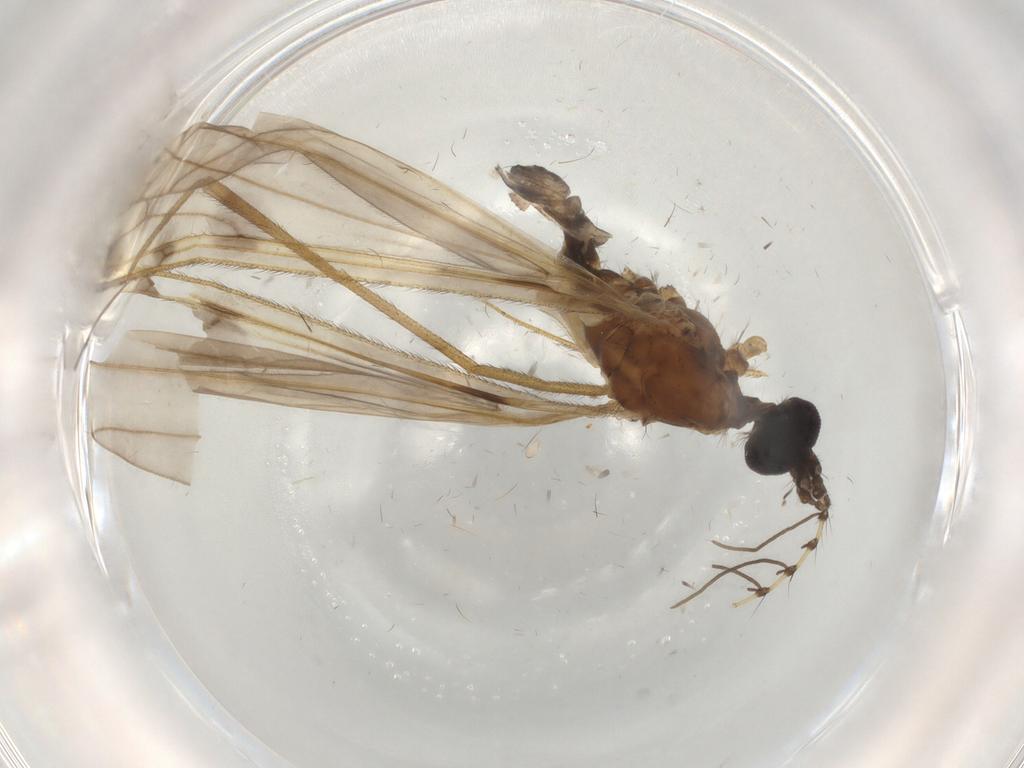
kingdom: Animalia
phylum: Arthropoda
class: Insecta
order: Diptera
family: Sciaridae
